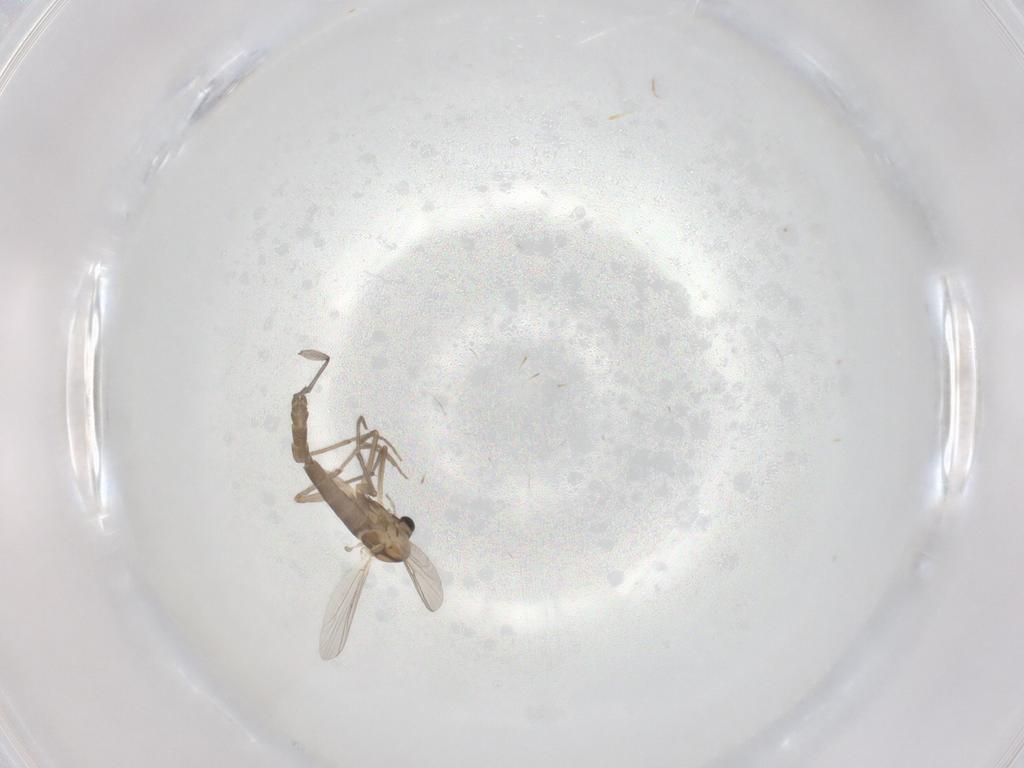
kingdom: Animalia
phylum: Arthropoda
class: Insecta
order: Diptera
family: Chironomidae
